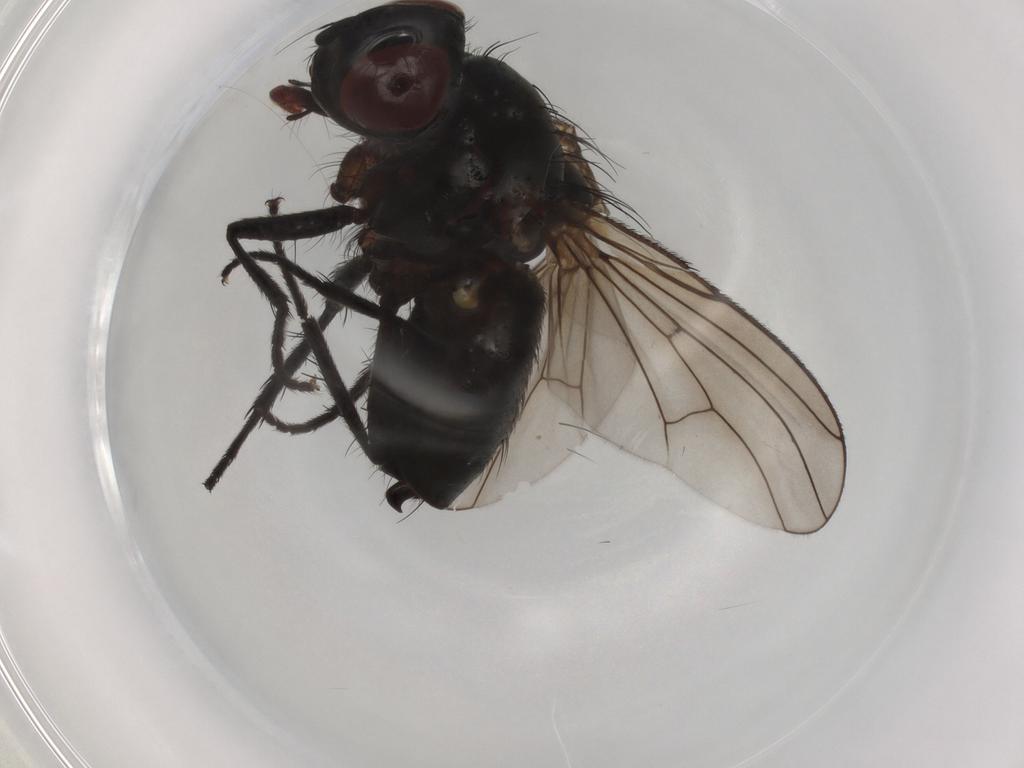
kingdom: Animalia
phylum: Arthropoda
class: Insecta
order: Diptera
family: Anthomyiidae
